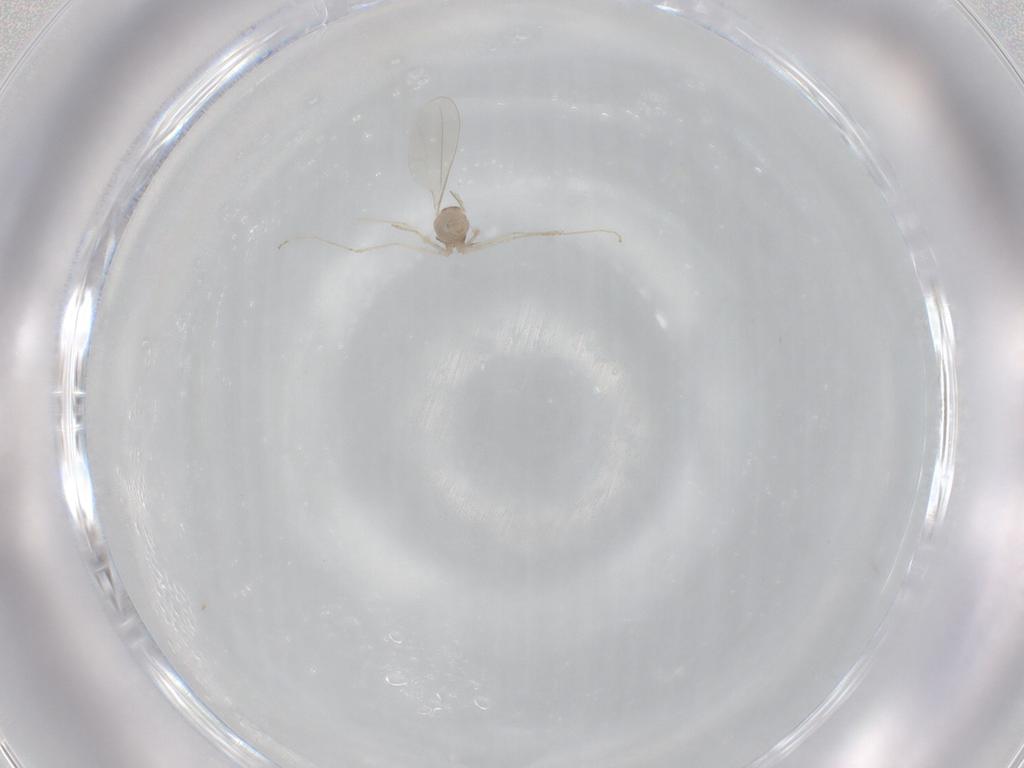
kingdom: Animalia
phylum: Arthropoda
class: Insecta
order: Diptera
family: Cecidomyiidae
